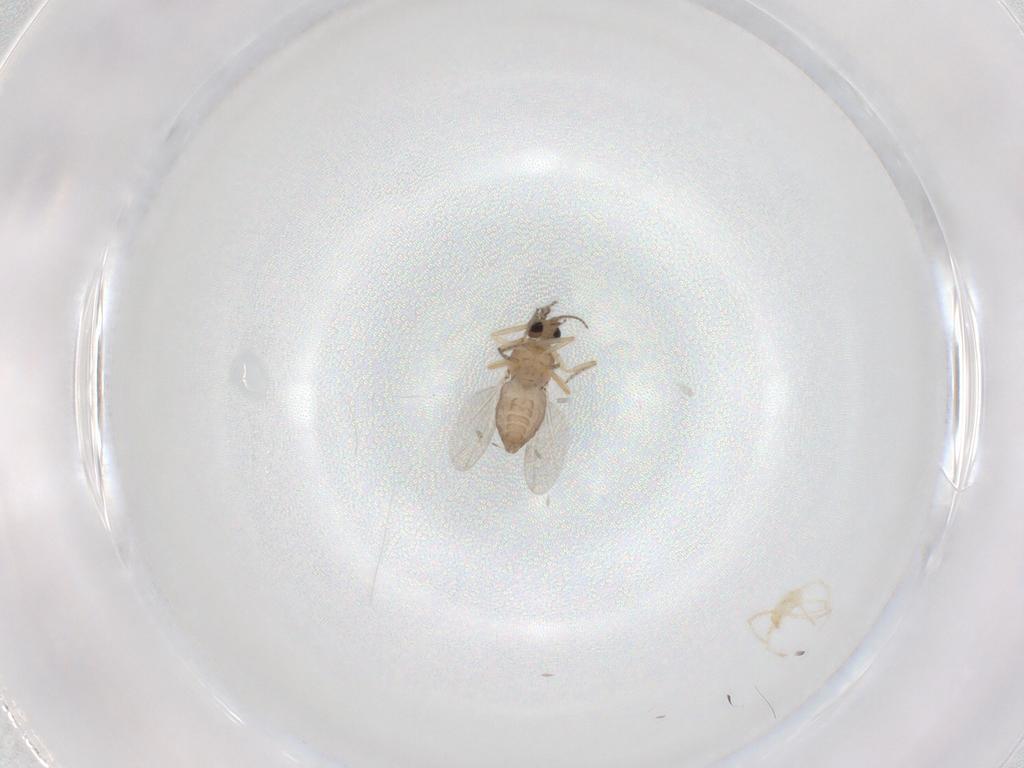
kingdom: Animalia
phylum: Arthropoda
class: Insecta
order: Diptera
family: Cecidomyiidae
